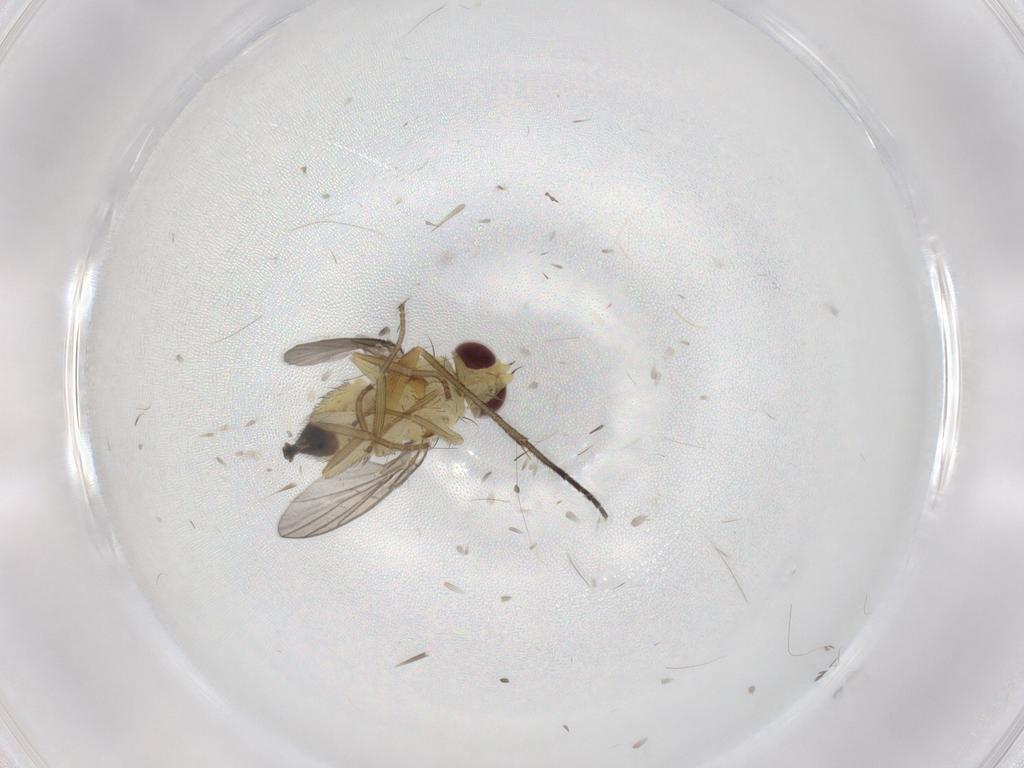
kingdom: Animalia
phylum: Arthropoda
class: Insecta
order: Diptera
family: Agromyzidae
